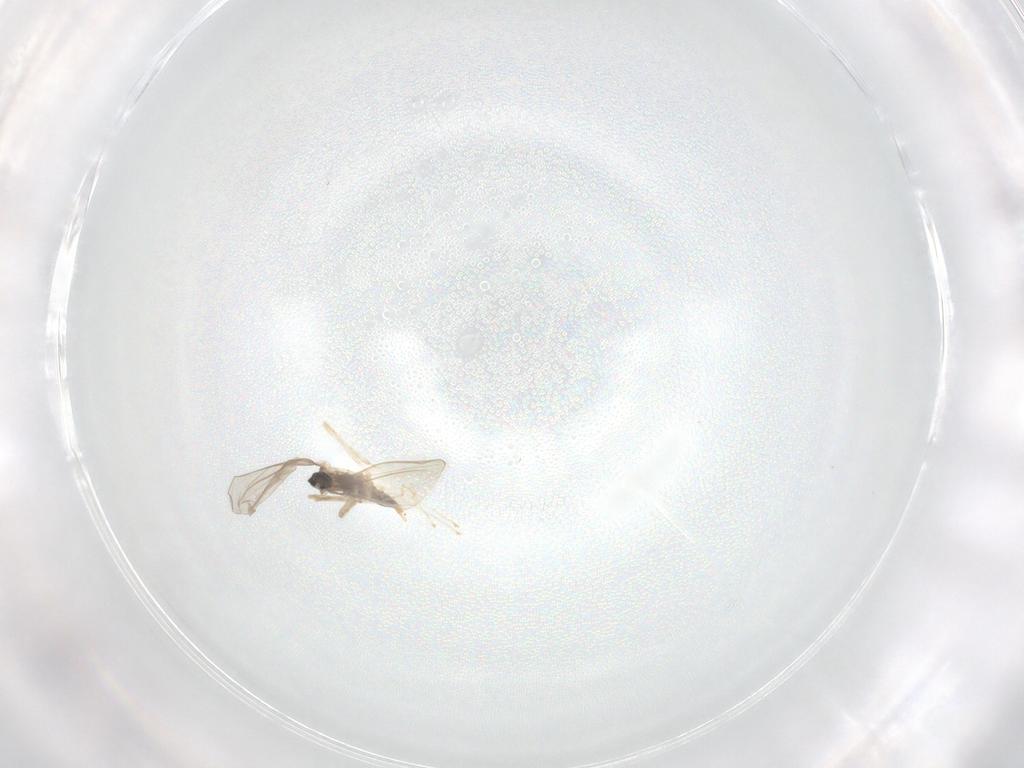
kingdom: Animalia
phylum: Arthropoda
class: Insecta
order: Diptera
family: Cecidomyiidae
